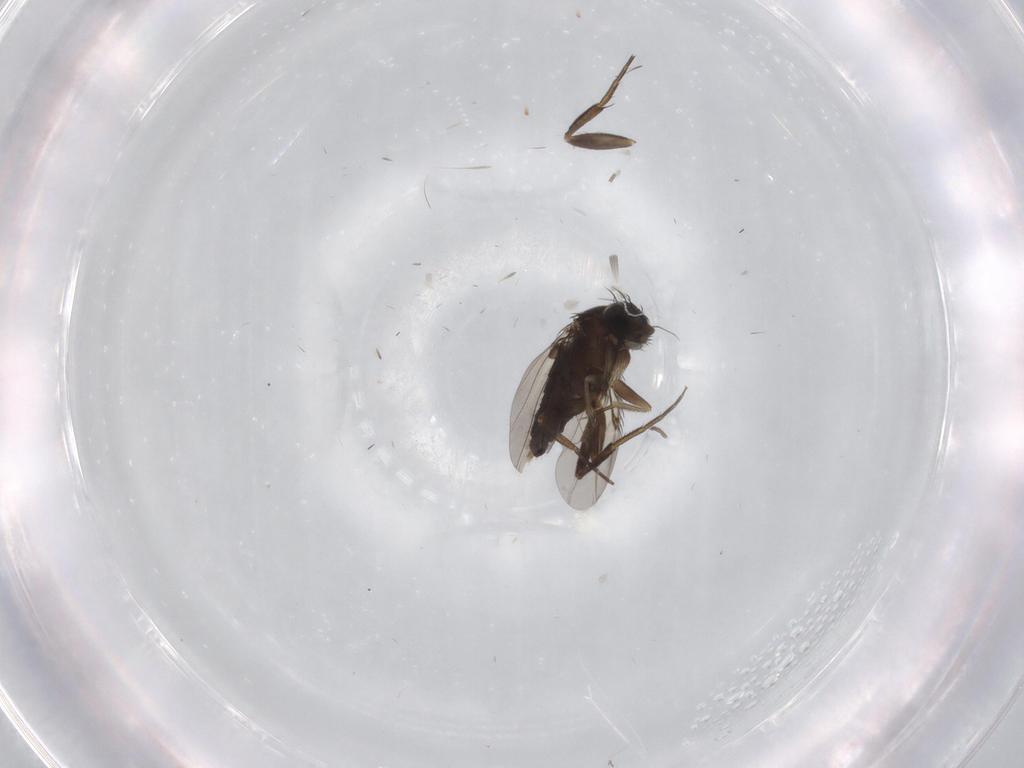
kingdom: Animalia
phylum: Arthropoda
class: Insecta
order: Diptera
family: Phoridae
